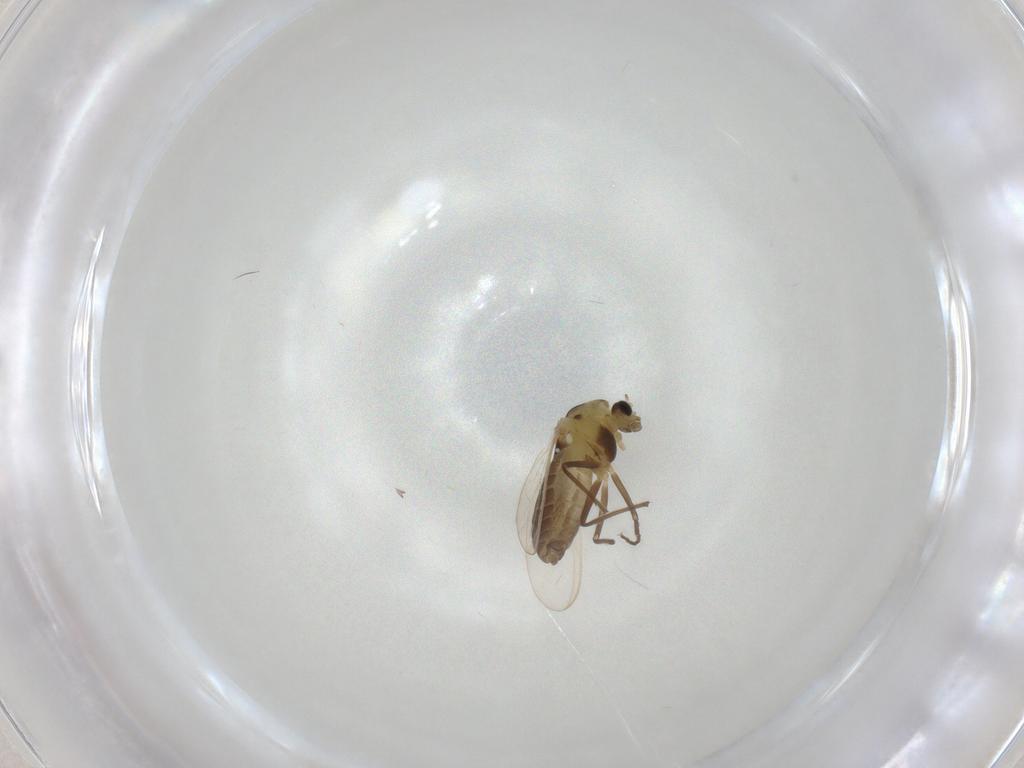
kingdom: Animalia
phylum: Arthropoda
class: Insecta
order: Diptera
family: Chironomidae
